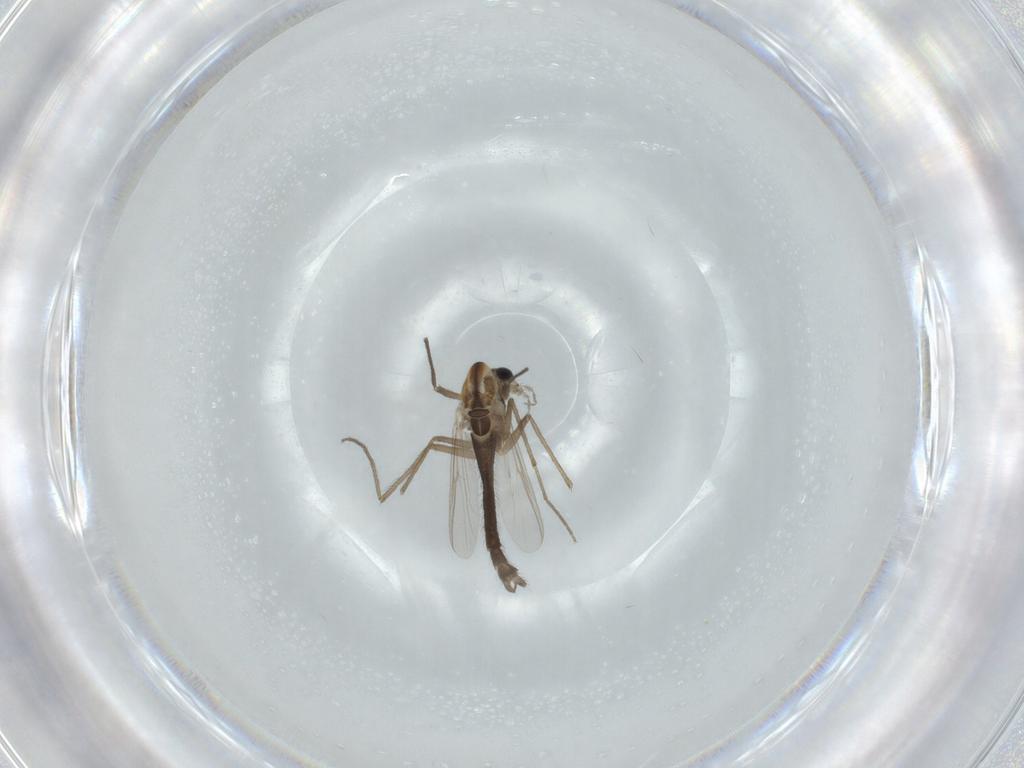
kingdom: Animalia
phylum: Arthropoda
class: Insecta
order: Diptera
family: Chironomidae
